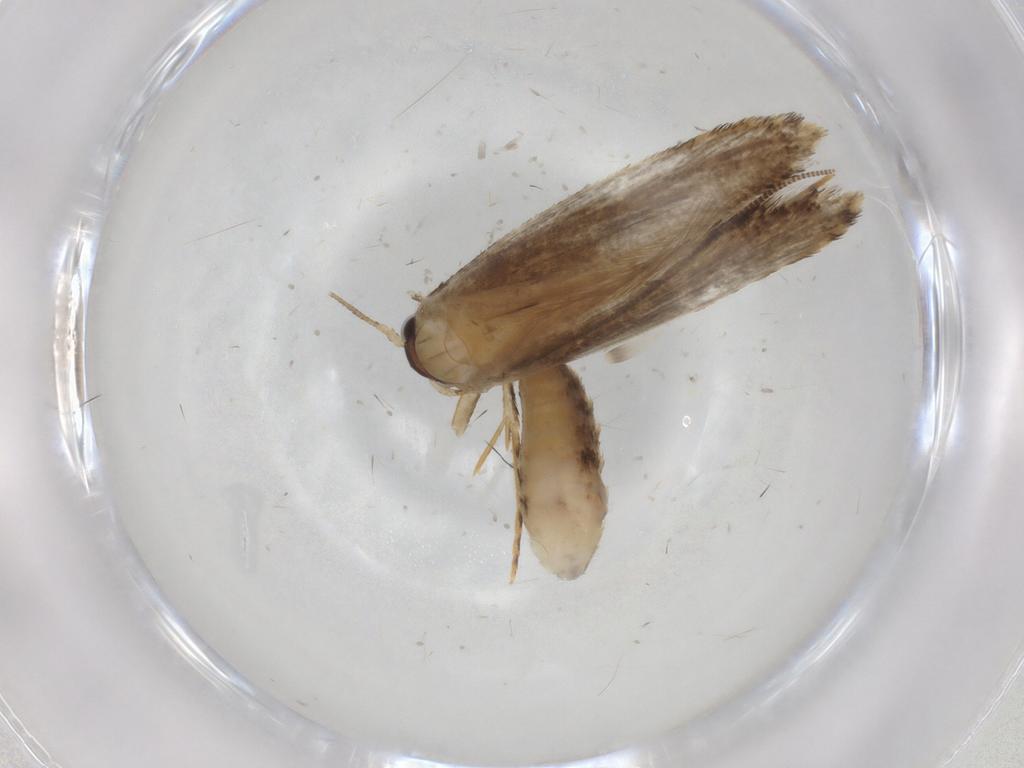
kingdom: Animalia
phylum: Arthropoda
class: Insecta
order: Lepidoptera
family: Tineidae
